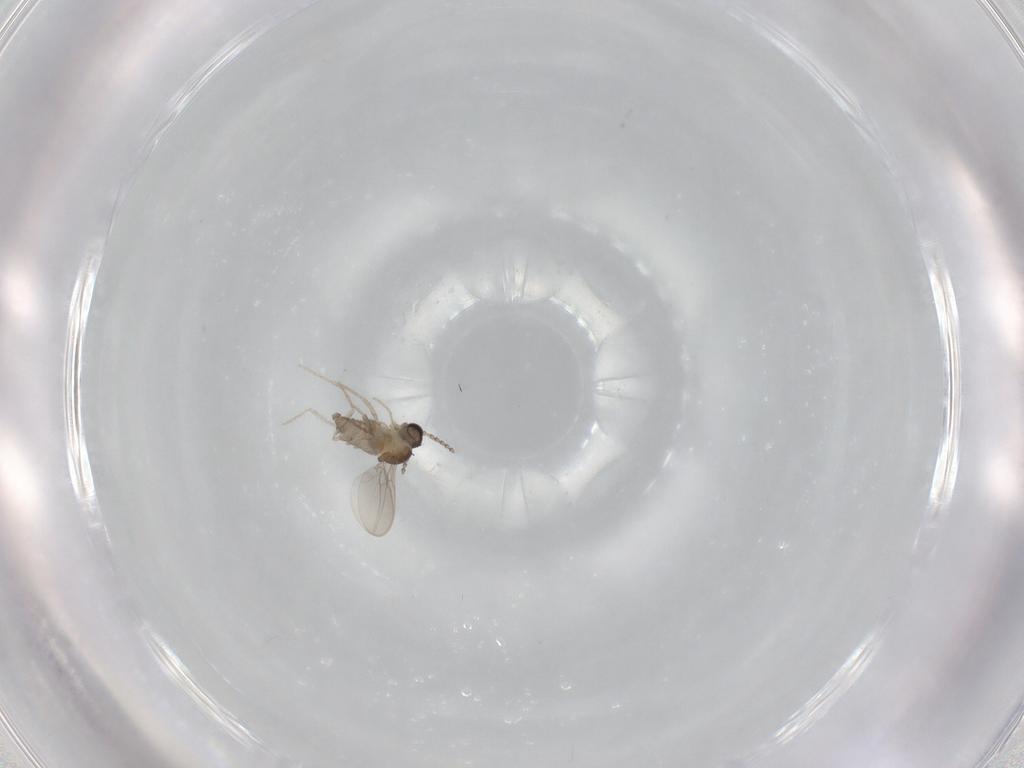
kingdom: Animalia
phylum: Arthropoda
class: Insecta
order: Diptera
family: Cecidomyiidae
